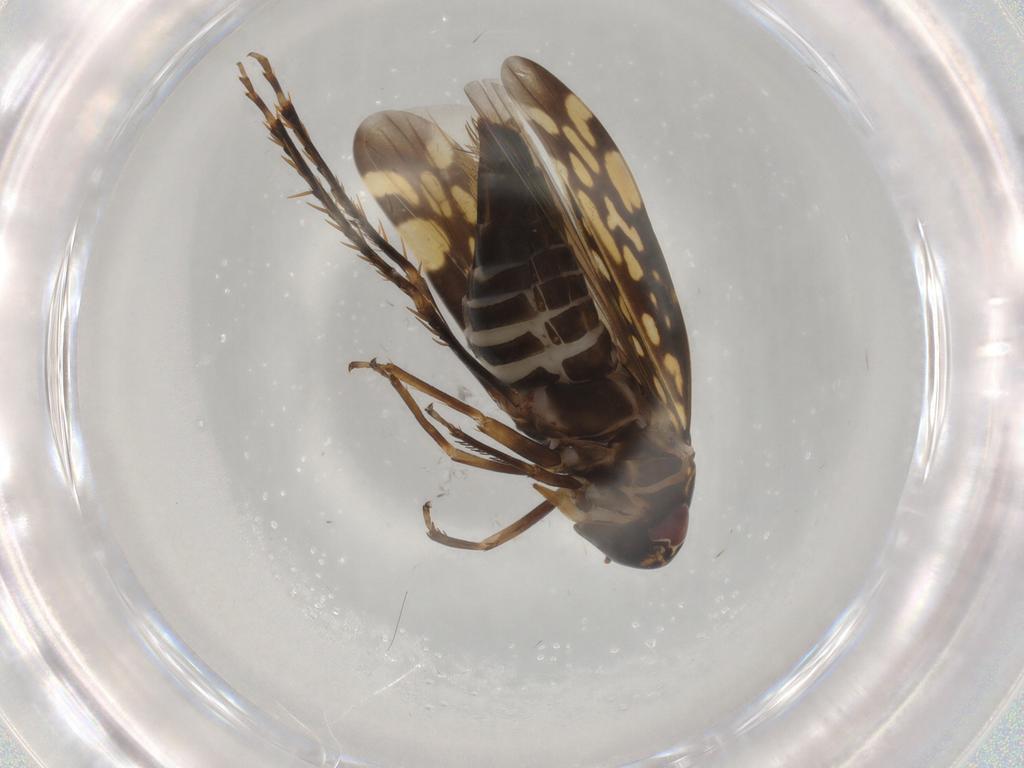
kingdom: Animalia
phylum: Arthropoda
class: Insecta
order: Hemiptera
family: Cicadellidae
